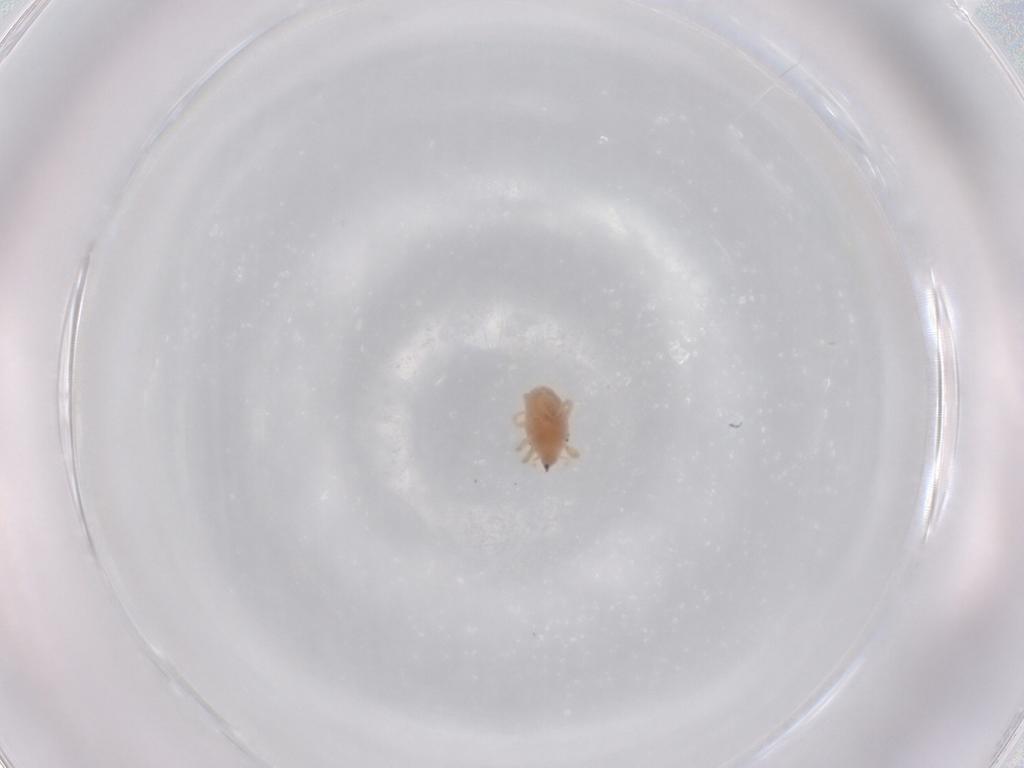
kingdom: Animalia
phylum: Arthropoda
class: Arachnida
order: Trombidiformes
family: Bdellidae
